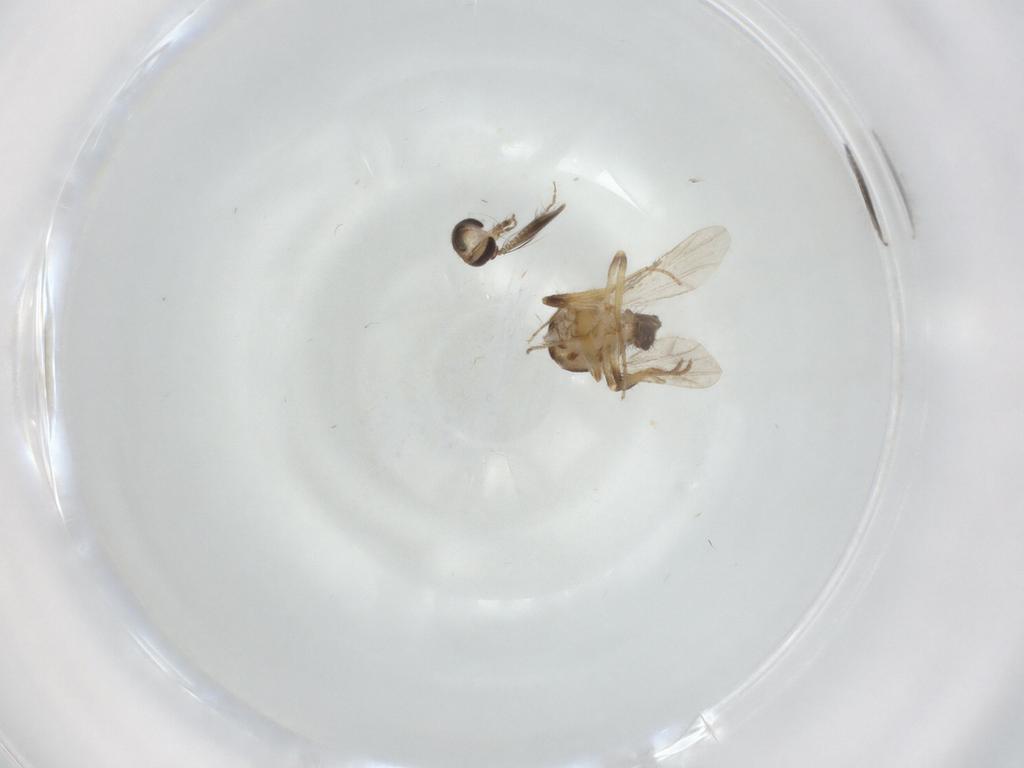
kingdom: Animalia
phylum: Arthropoda
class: Insecta
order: Diptera
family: Ceratopogonidae
